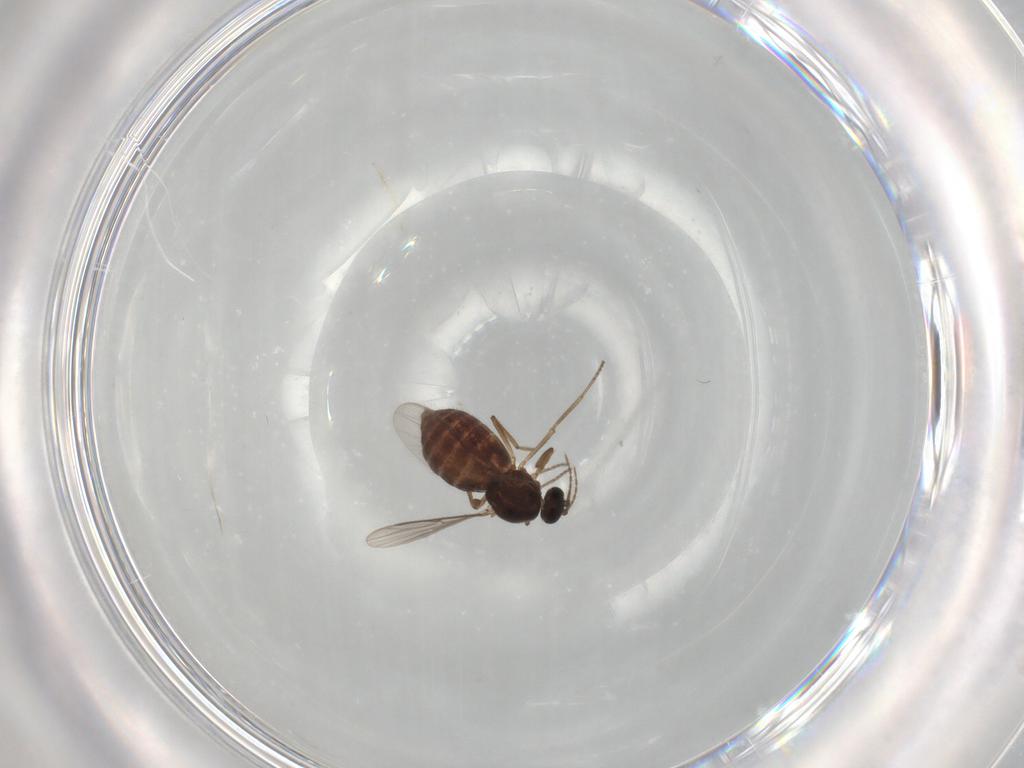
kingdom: Animalia
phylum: Arthropoda
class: Insecta
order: Diptera
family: Ceratopogonidae
